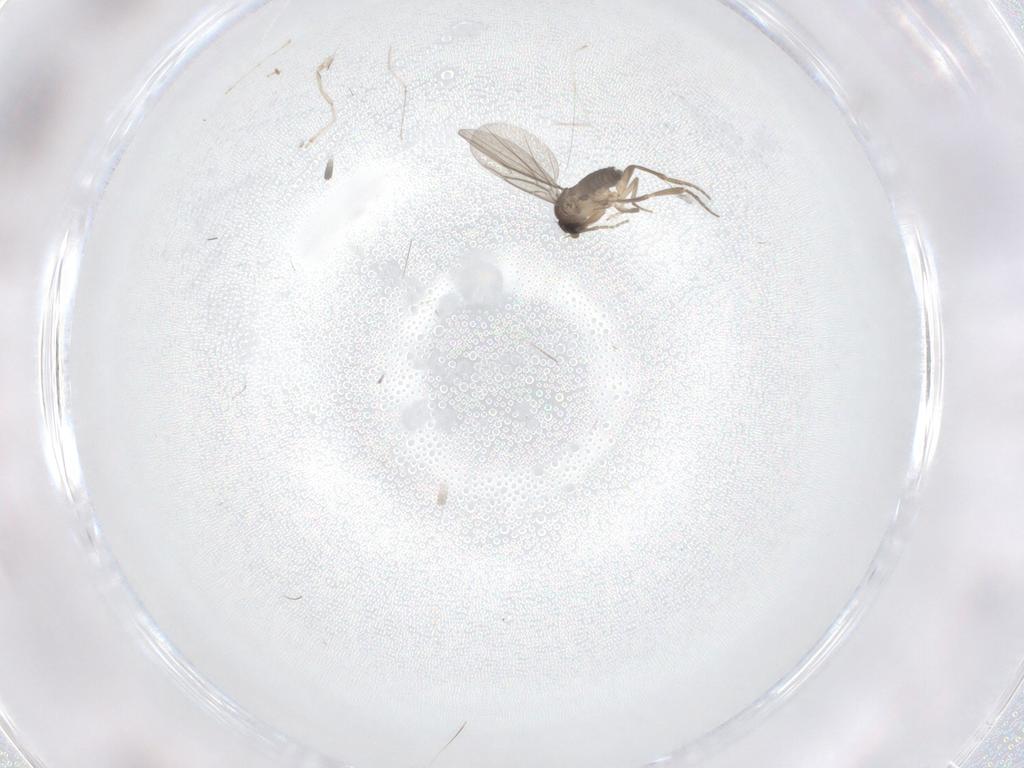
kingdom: Animalia
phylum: Arthropoda
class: Insecta
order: Diptera
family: Cecidomyiidae
